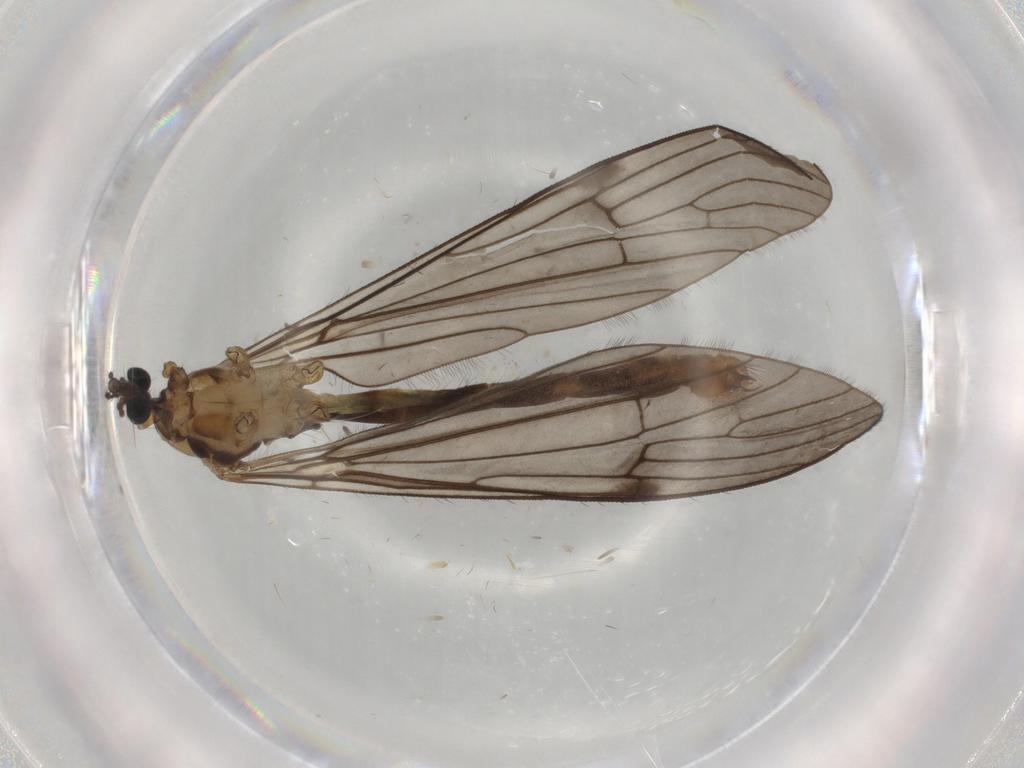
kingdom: Animalia
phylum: Arthropoda
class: Insecta
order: Diptera
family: Limoniidae
